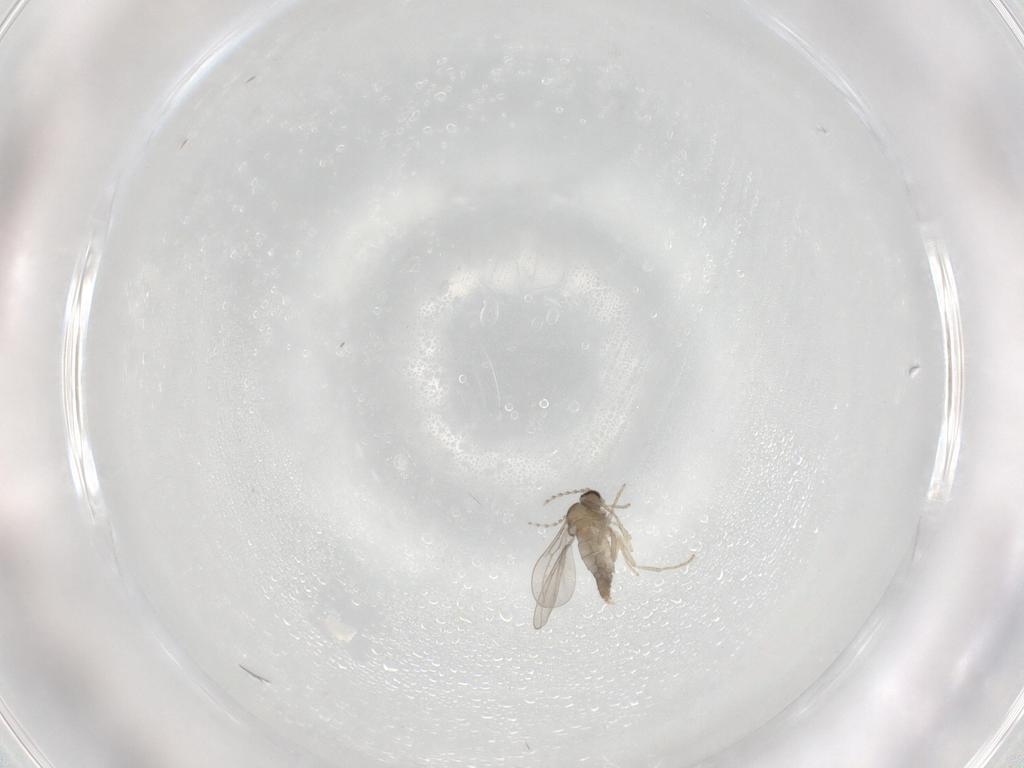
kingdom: Animalia
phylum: Arthropoda
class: Insecta
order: Diptera
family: Cecidomyiidae
